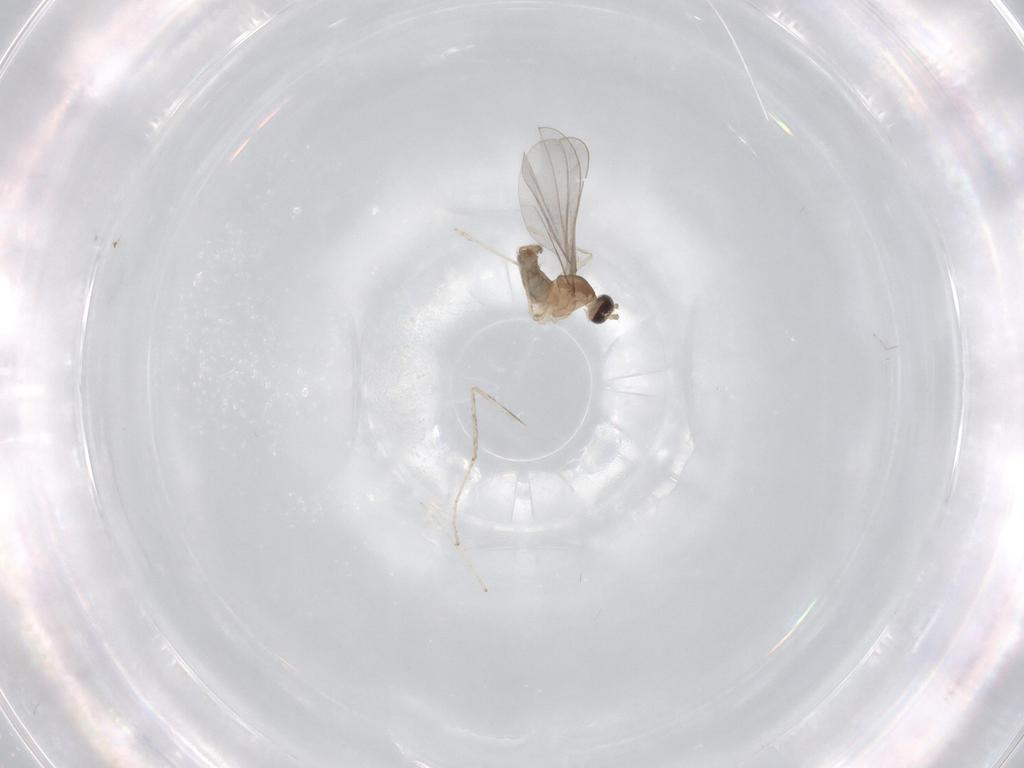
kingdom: Animalia
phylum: Arthropoda
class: Insecta
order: Diptera
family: Cecidomyiidae
